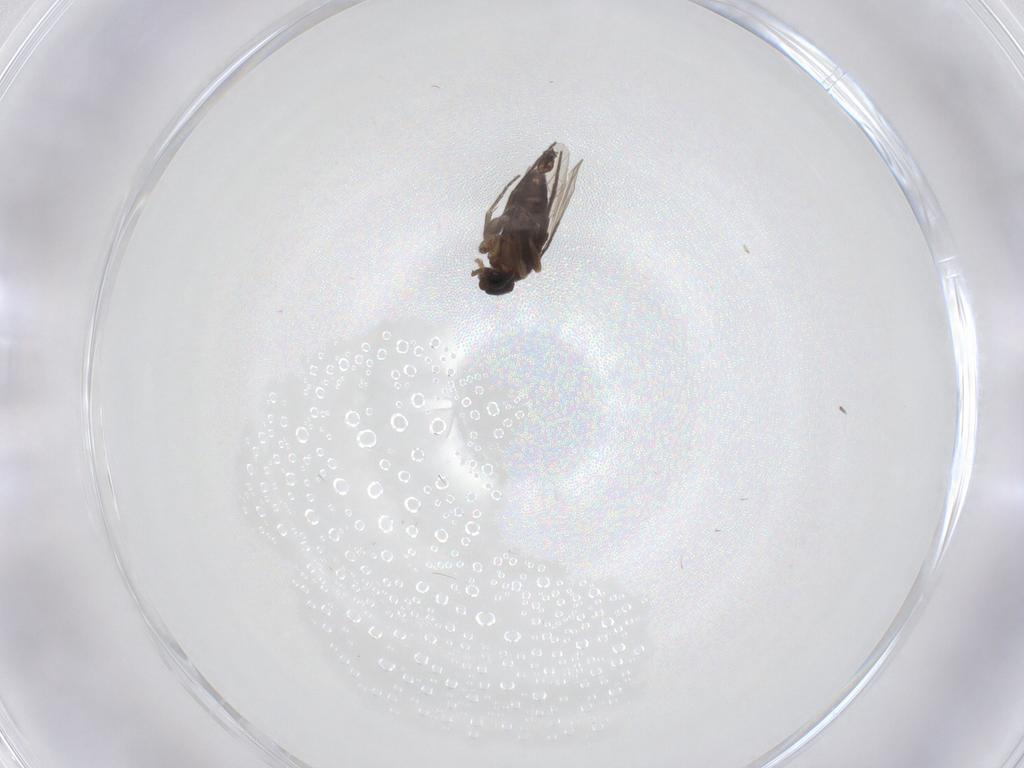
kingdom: Animalia
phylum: Arthropoda
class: Insecta
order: Diptera
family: Limoniidae
